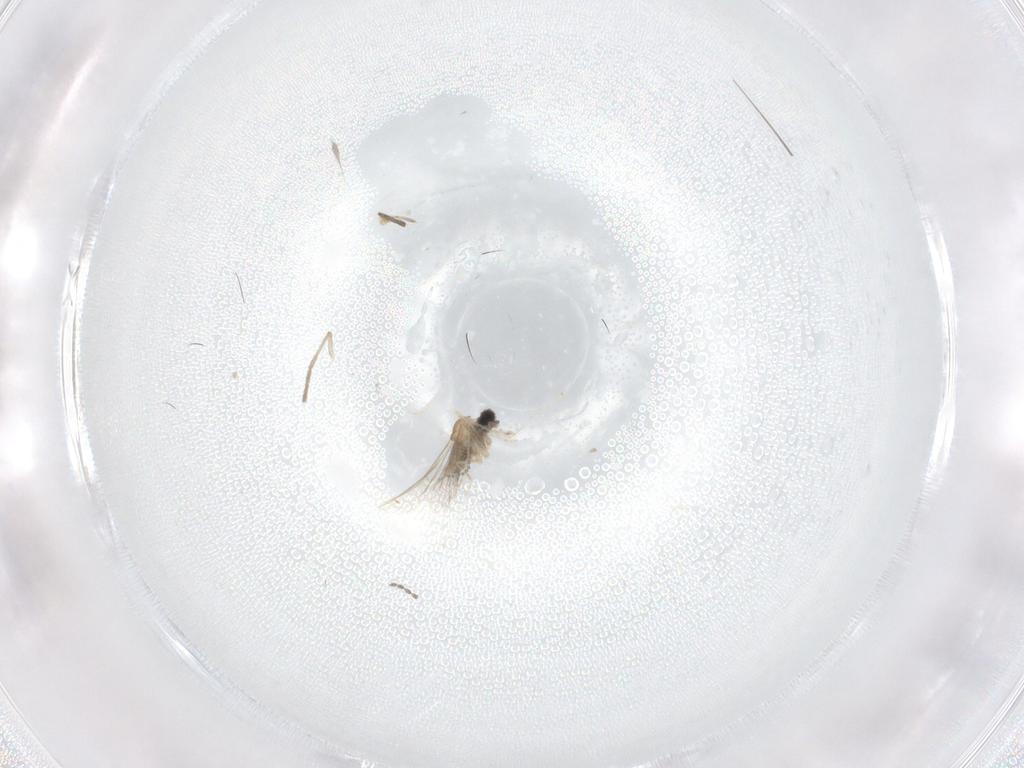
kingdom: Animalia
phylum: Arthropoda
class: Insecta
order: Diptera
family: Cecidomyiidae
